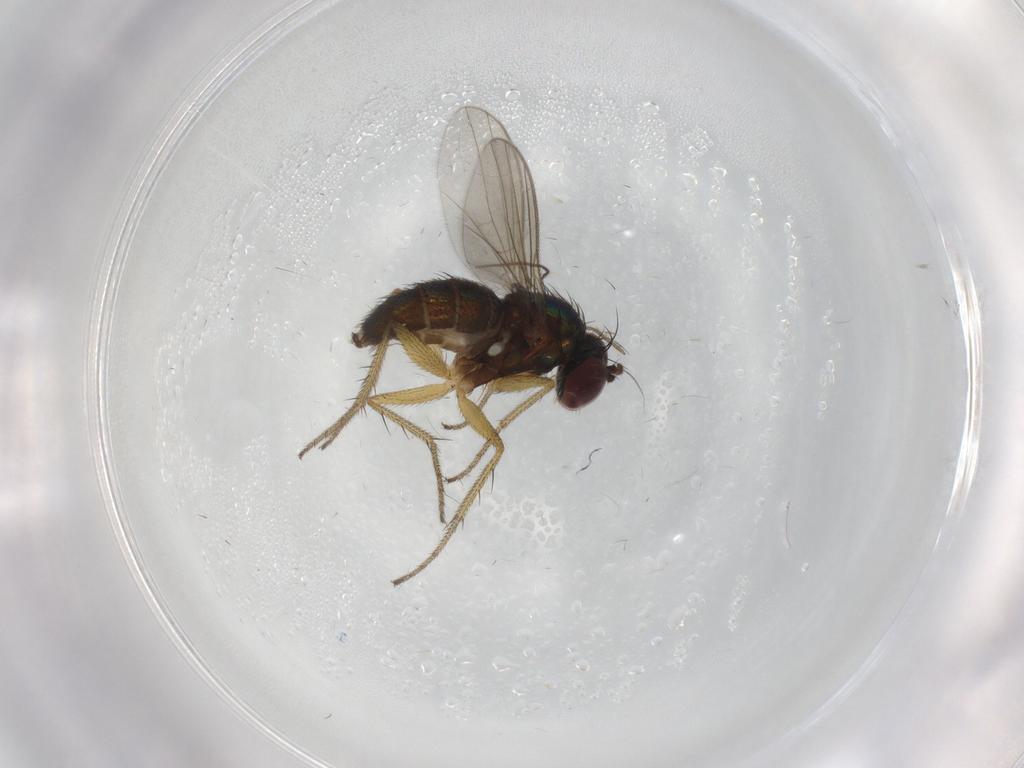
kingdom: Animalia
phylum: Arthropoda
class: Insecta
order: Diptera
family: Dolichopodidae
